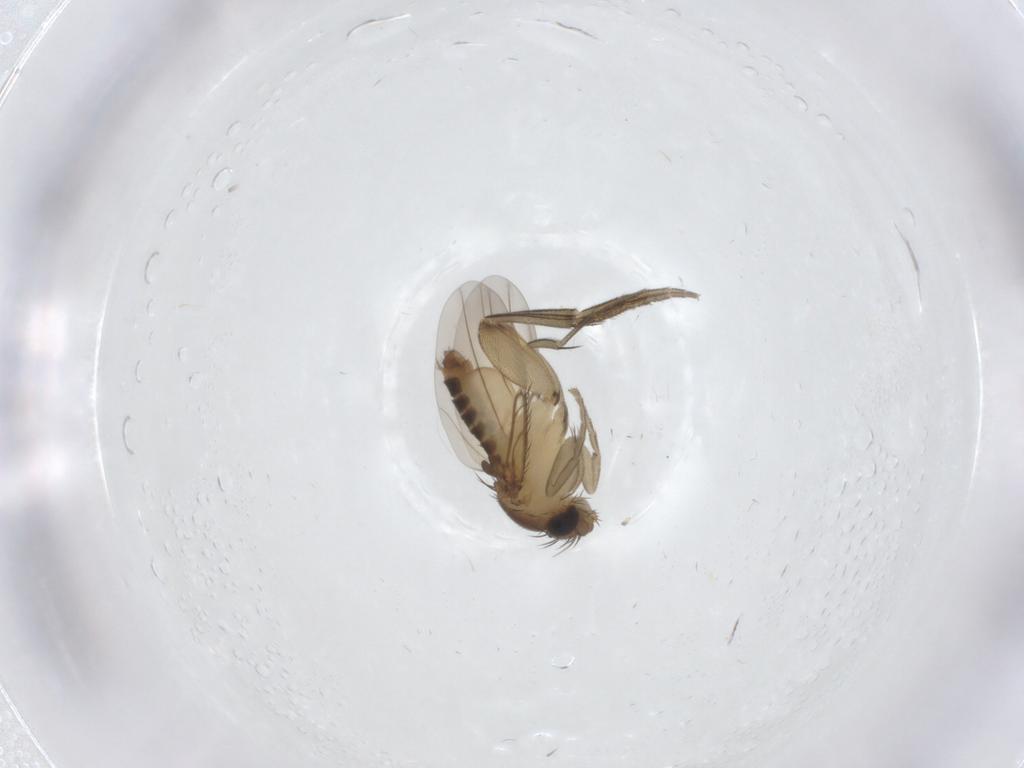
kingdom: Animalia
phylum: Arthropoda
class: Insecta
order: Diptera
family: Phoridae
